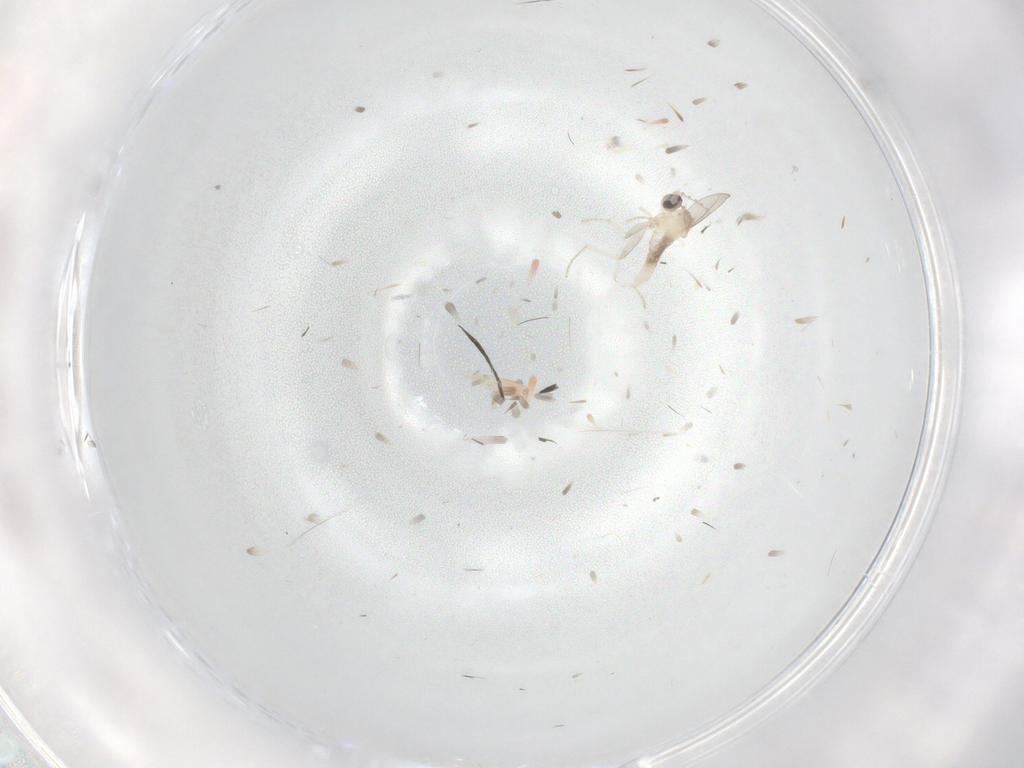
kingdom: Animalia
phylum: Arthropoda
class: Insecta
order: Diptera
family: Cecidomyiidae
